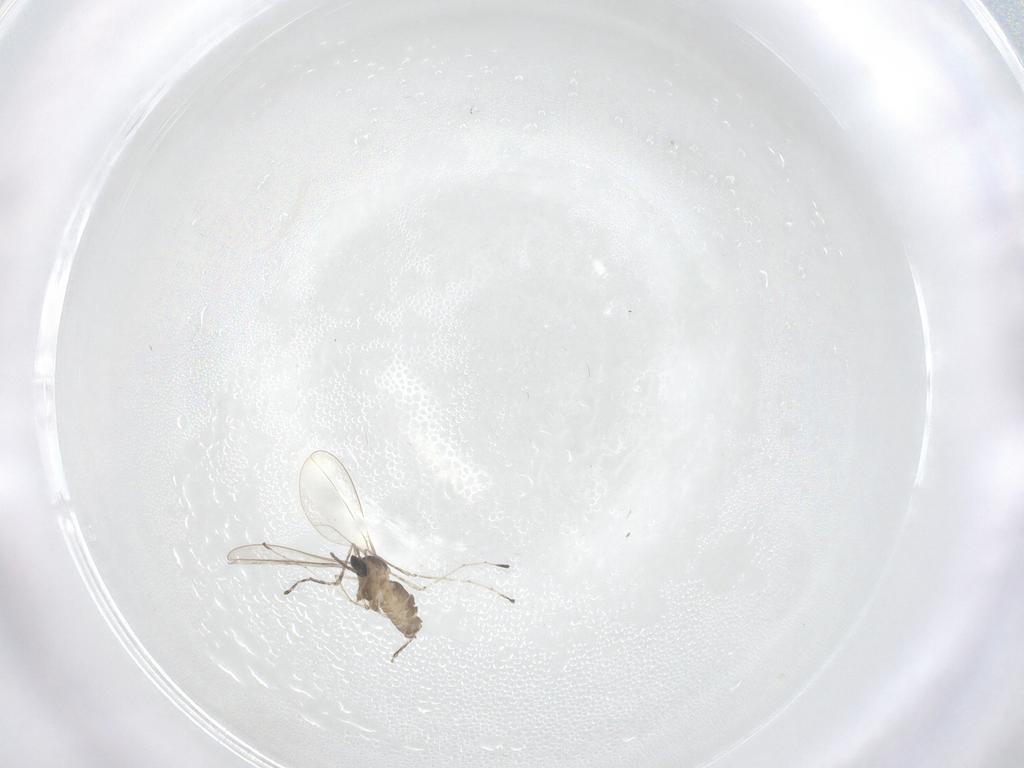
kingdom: Animalia
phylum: Arthropoda
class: Insecta
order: Diptera
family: Cecidomyiidae
